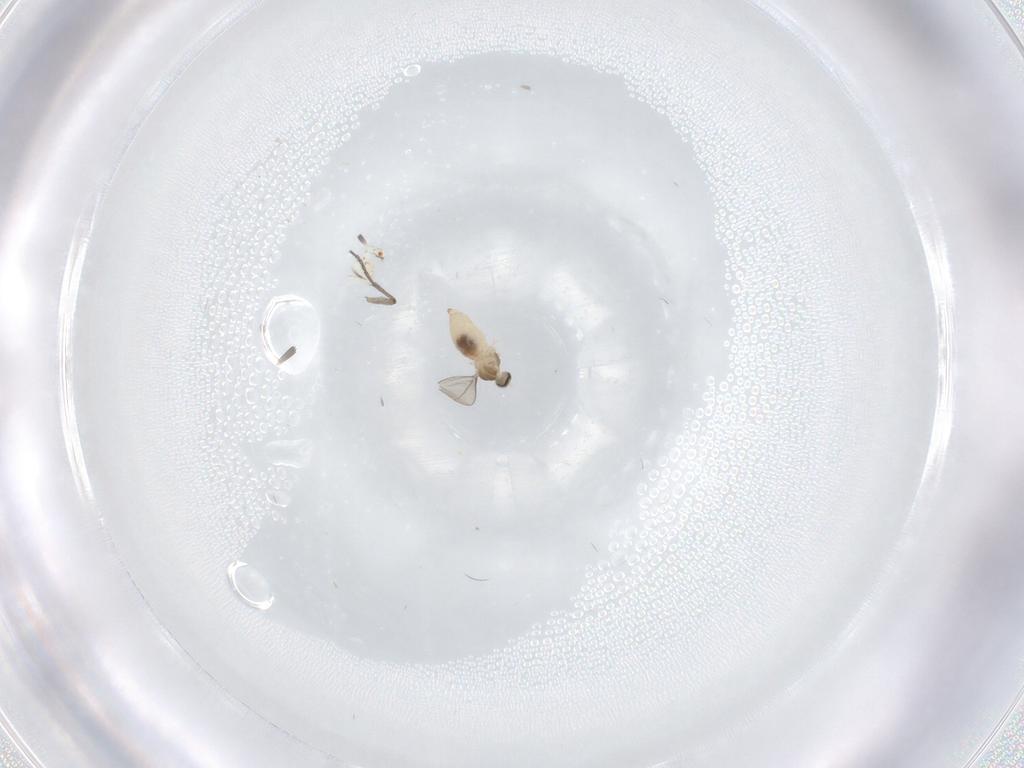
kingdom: Animalia
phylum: Arthropoda
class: Insecta
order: Diptera
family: Cecidomyiidae
